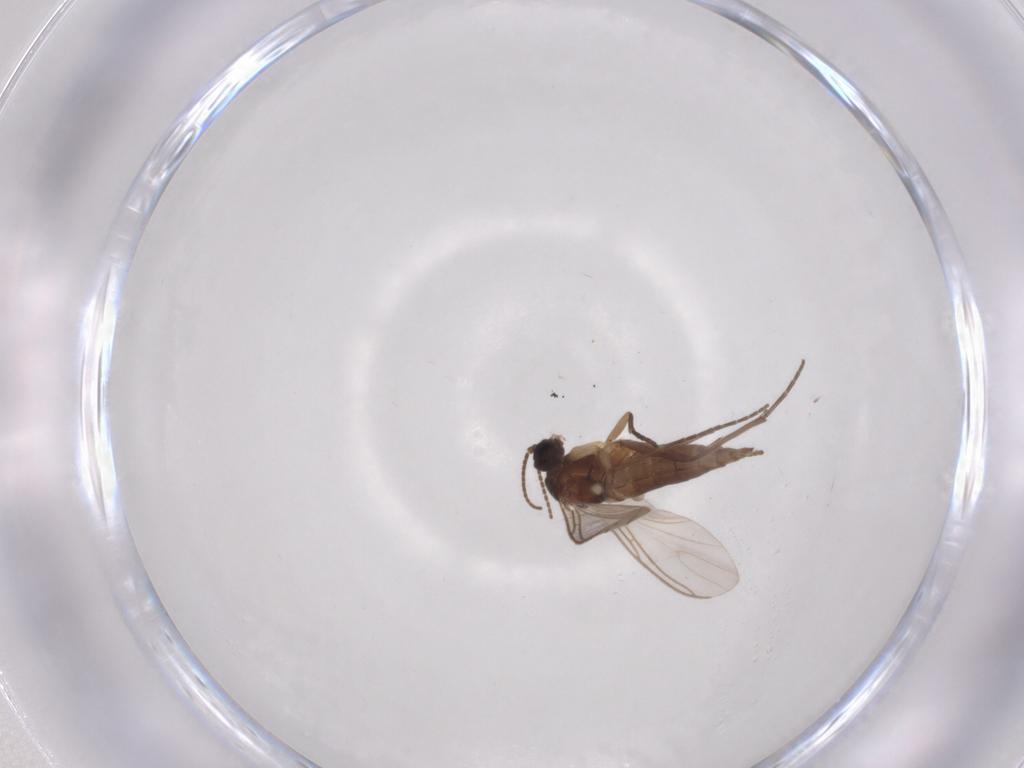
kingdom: Animalia
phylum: Arthropoda
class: Insecta
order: Diptera
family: Sciaridae
